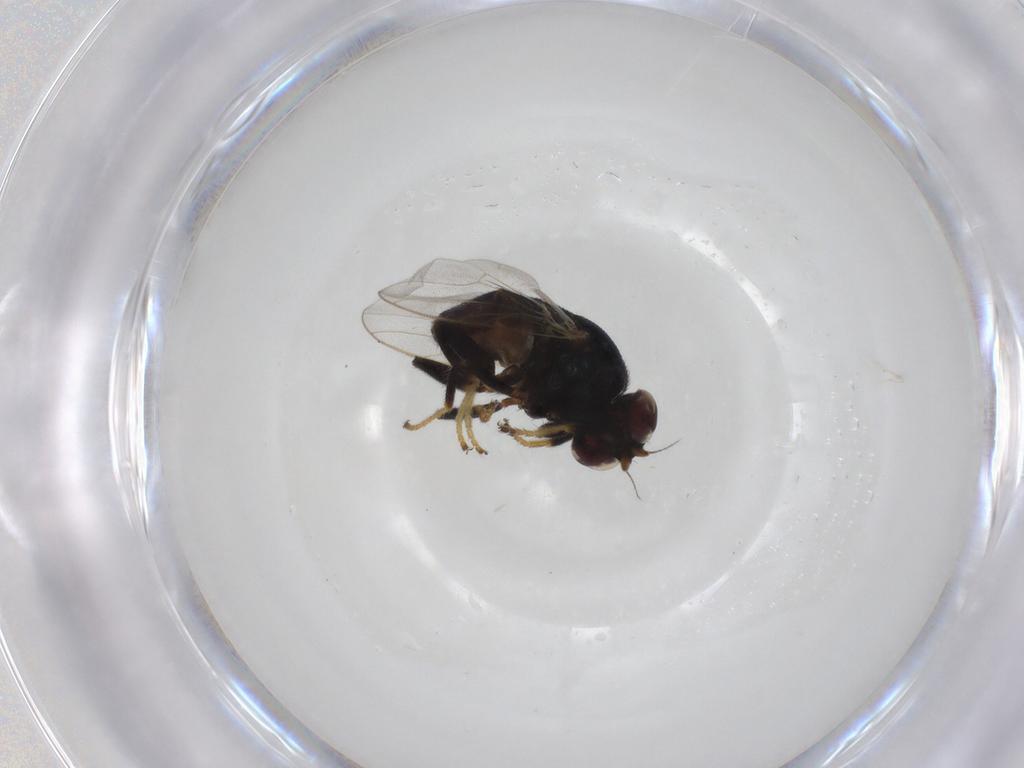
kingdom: Animalia
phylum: Arthropoda
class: Insecta
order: Diptera
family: Chloropidae
